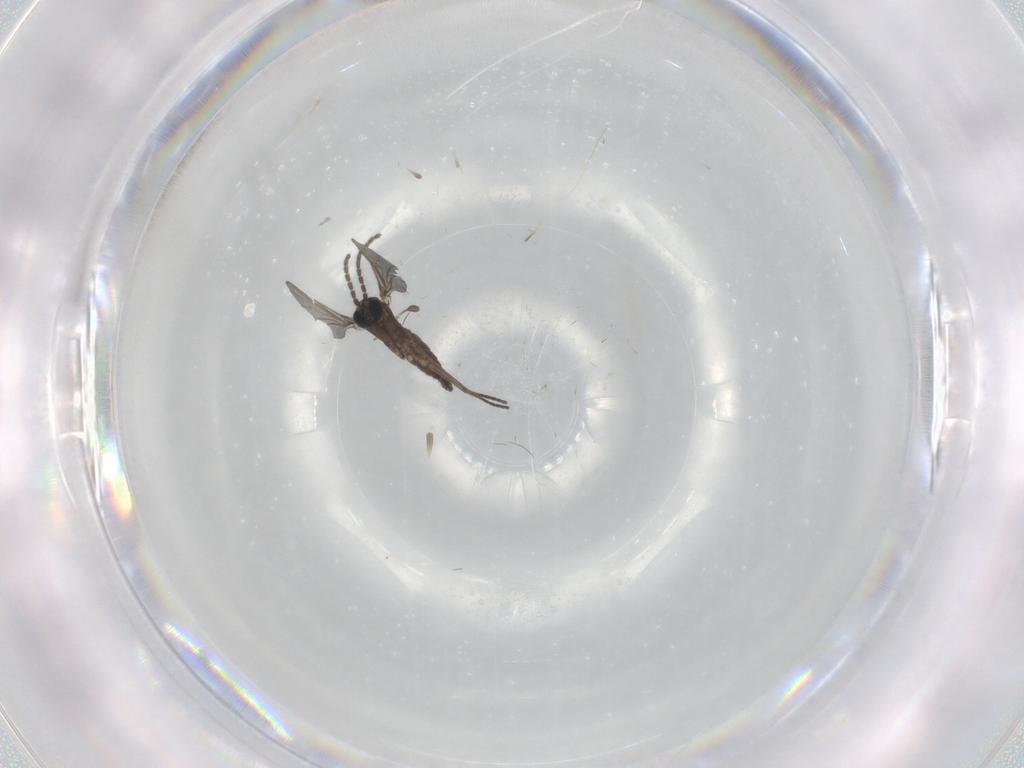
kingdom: Animalia
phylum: Arthropoda
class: Insecta
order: Diptera
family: Sciaridae
